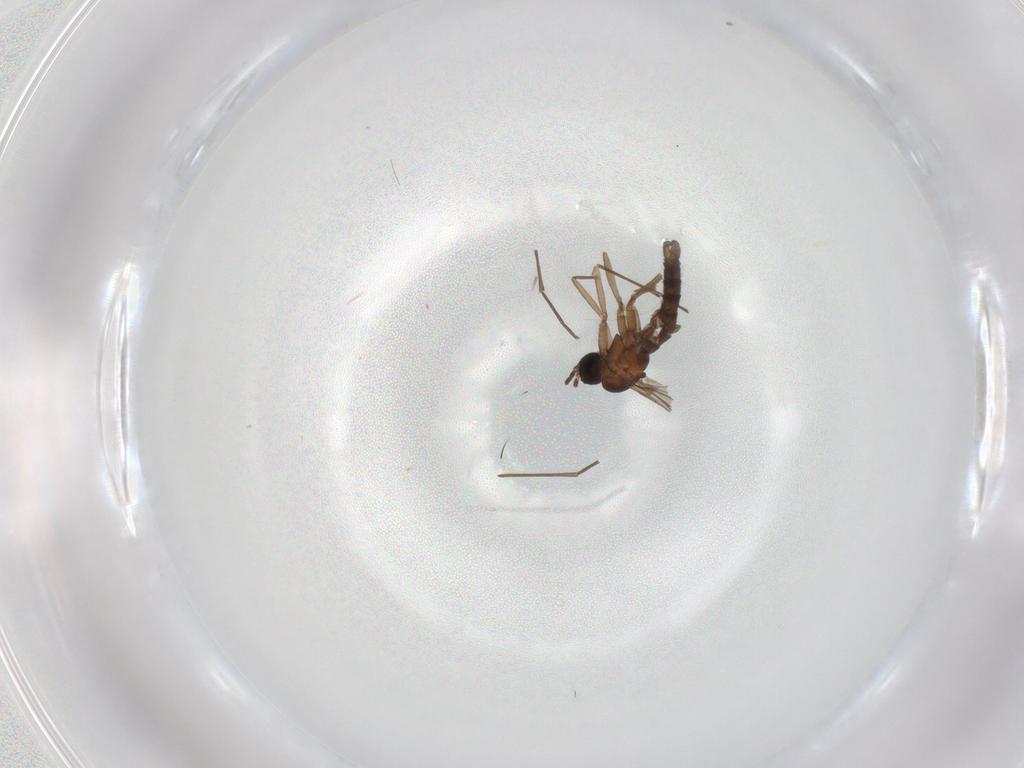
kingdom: Animalia
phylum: Arthropoda
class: Insecta
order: Diptera
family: Sciaridae
